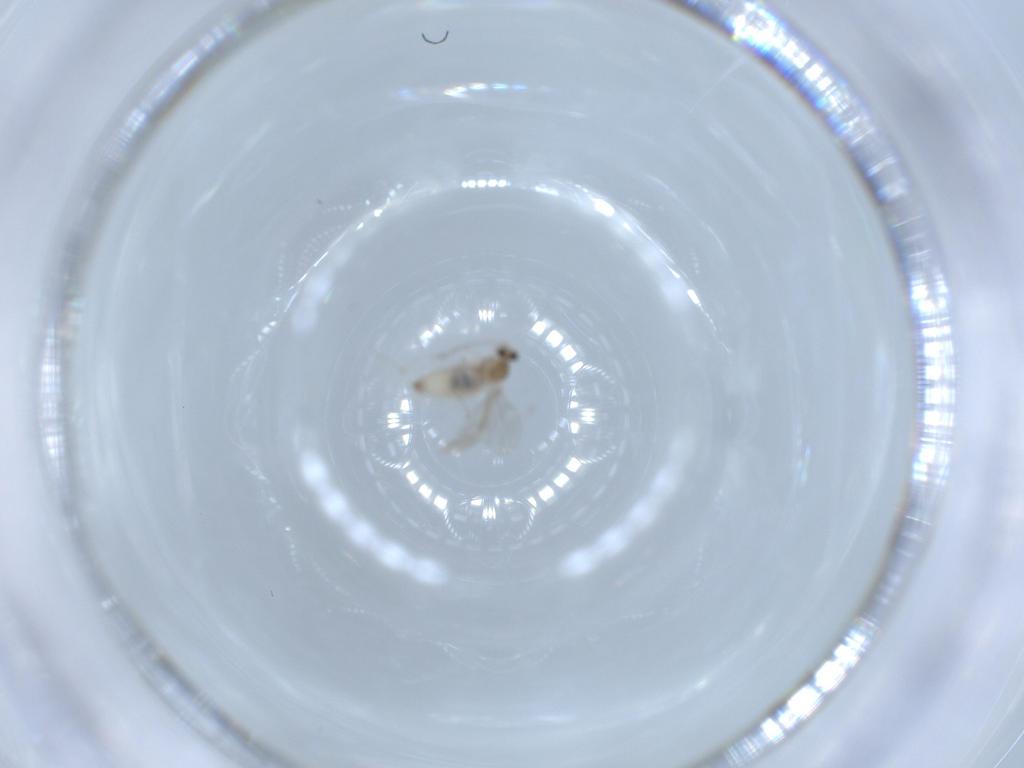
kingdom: Animalia
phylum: Arthropoda
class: Insecta
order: Diptera
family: Cecidomyiidae
